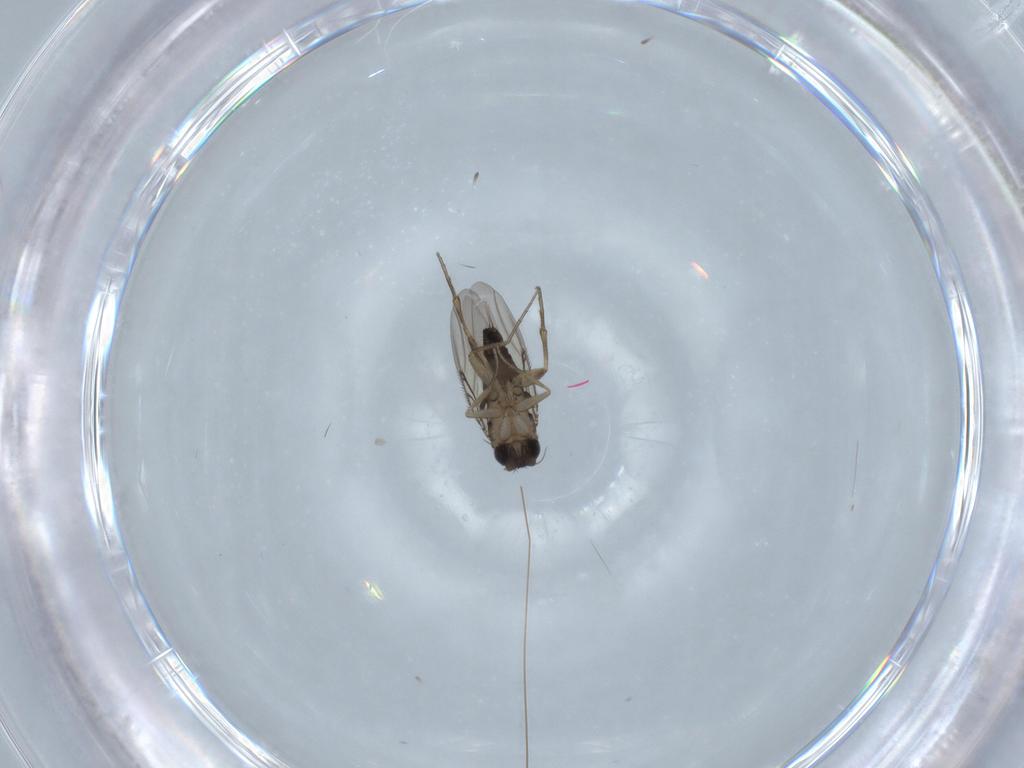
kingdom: Animalia
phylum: Arthropoda
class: Insecta
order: Diptera
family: Phoridae
